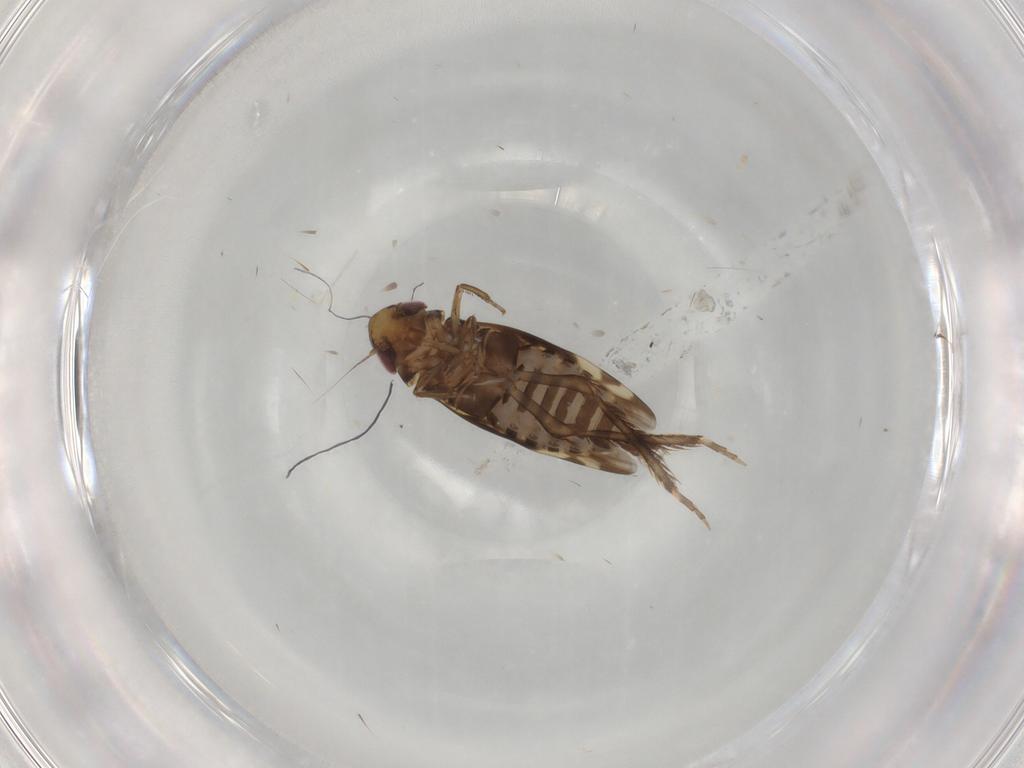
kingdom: Animalia
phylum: Arthropoda
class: Insecta
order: Hemiptera
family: Cicadellidae
